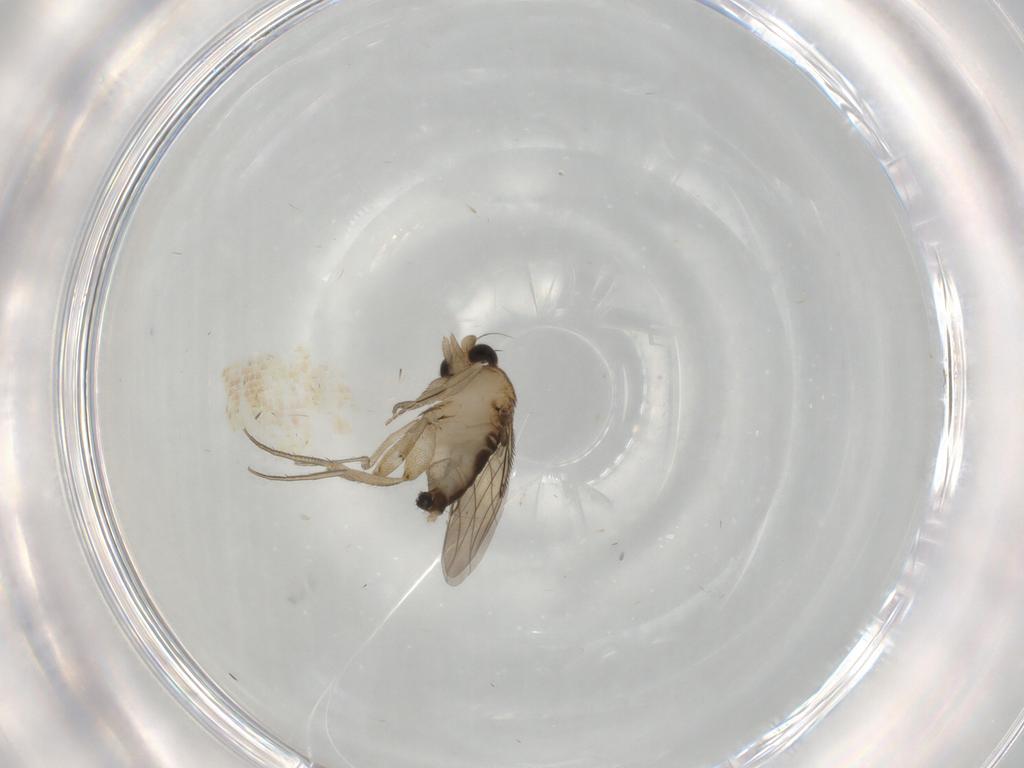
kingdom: Animalia
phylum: Arthropoda
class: Insecta
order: Diptera
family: Phoridae
